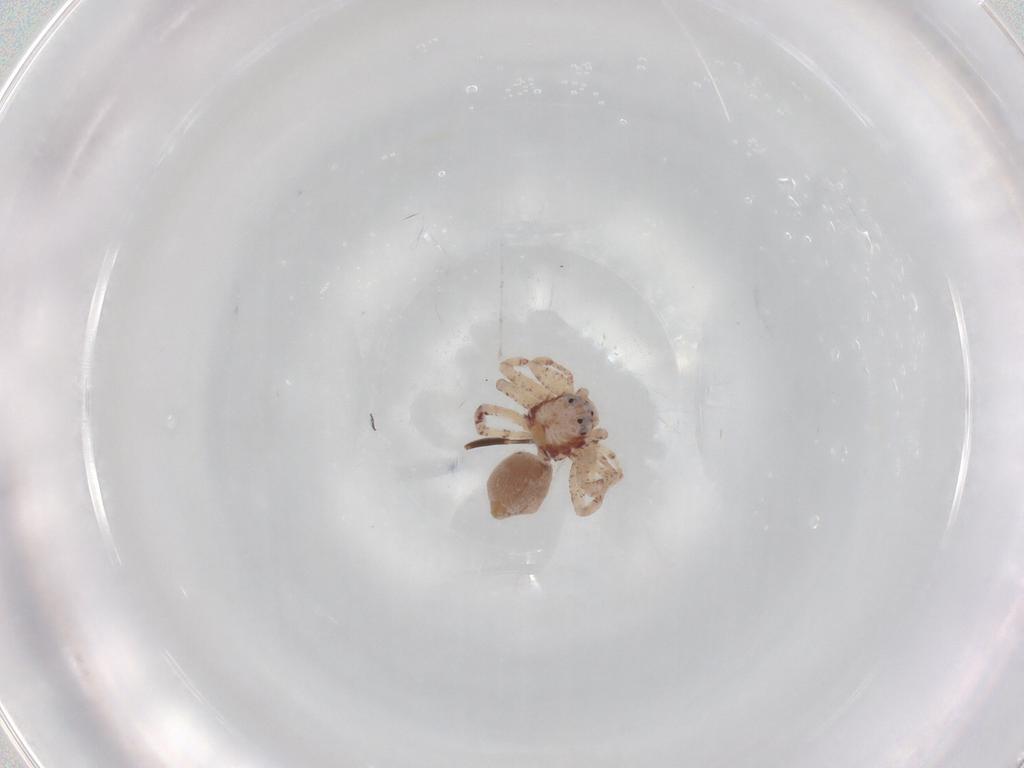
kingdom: Animalia
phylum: Arthropoda
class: Arachnida
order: Araneae
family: Philodromidae
